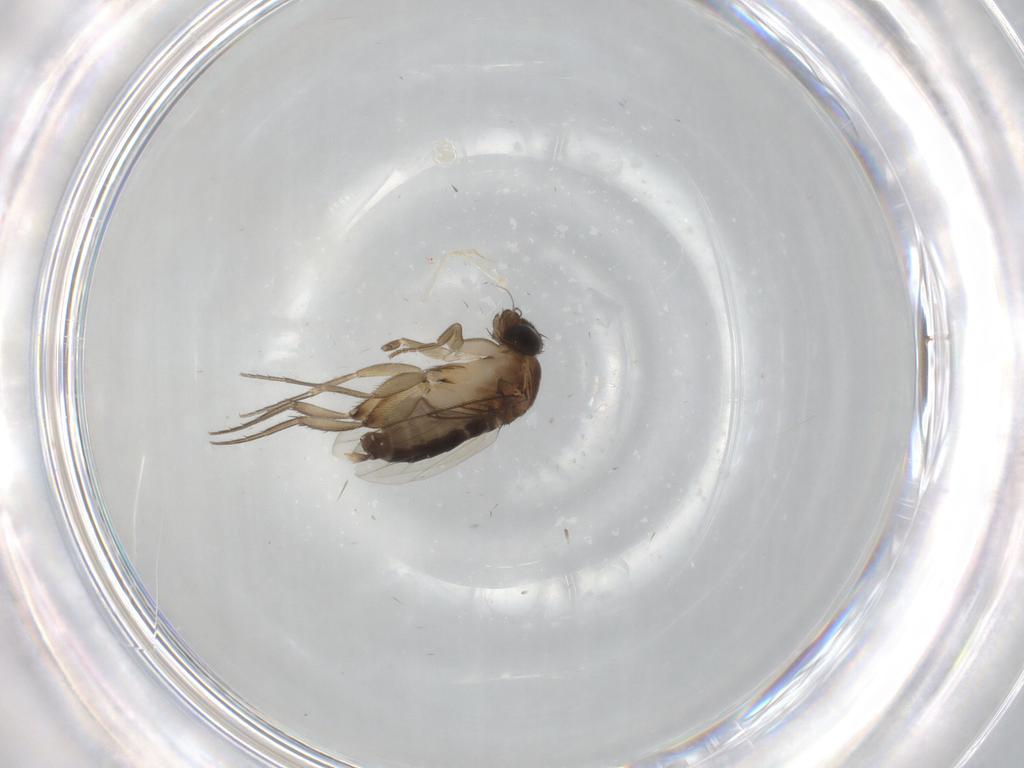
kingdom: Animalia
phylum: Arthropoda
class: Insecta
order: Diptera
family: Phoridae
